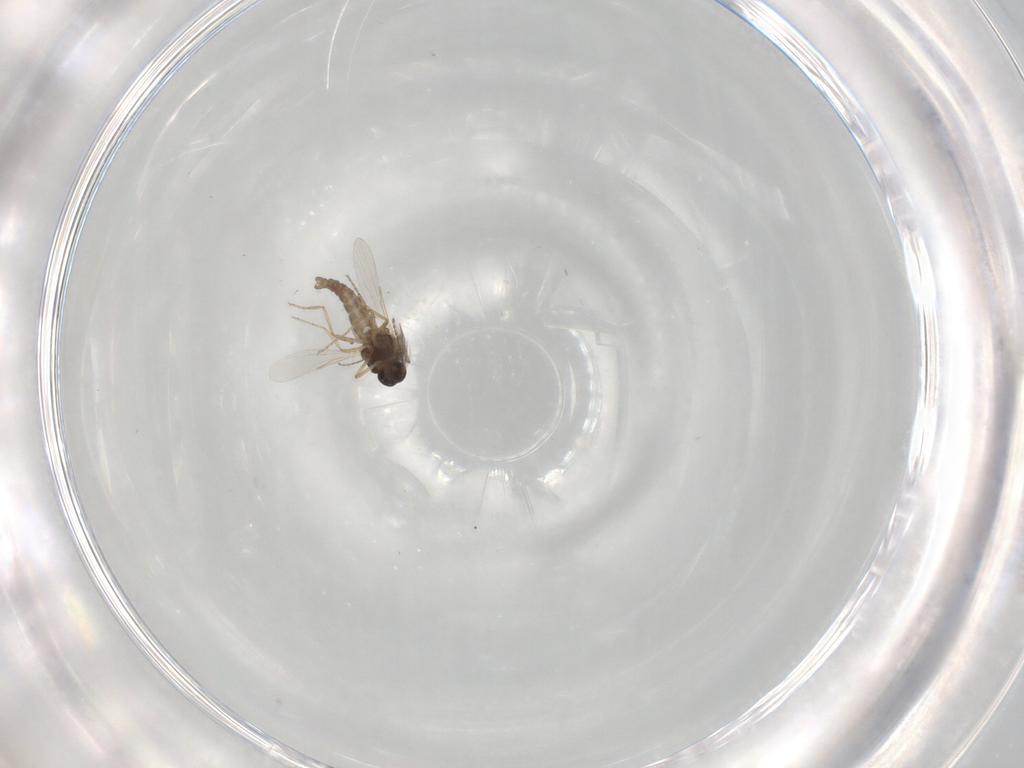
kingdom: Animalia
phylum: Arthropoda
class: Insecta
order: Diptera
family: Ceratopogonidae
